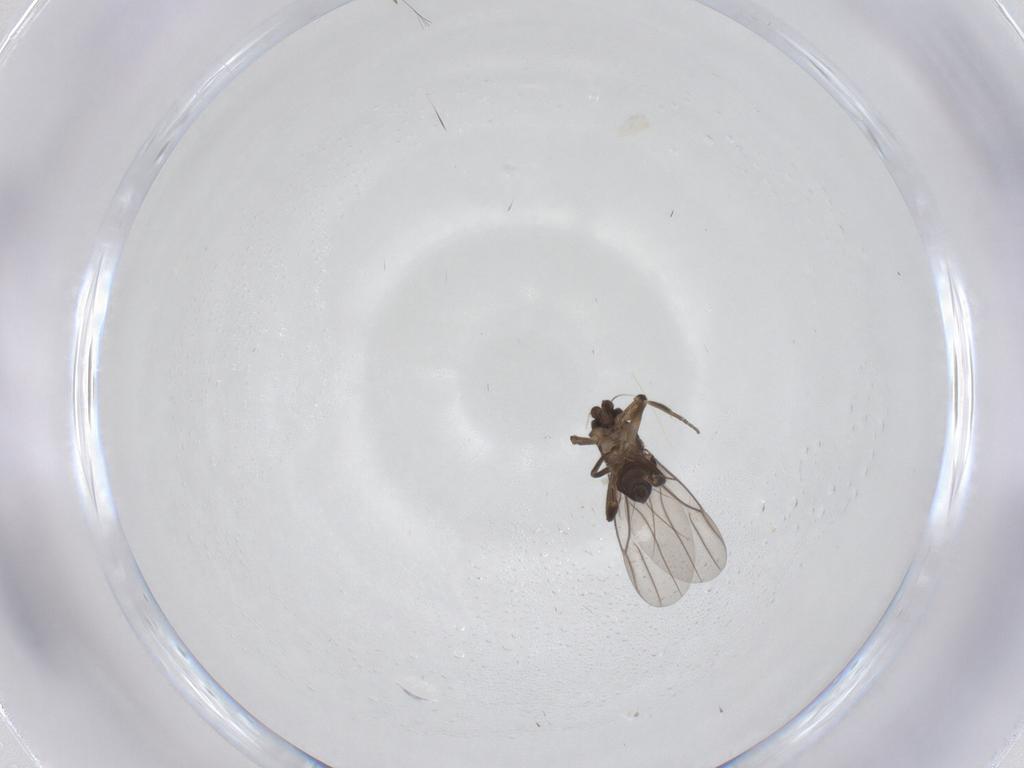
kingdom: Animalia
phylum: Arthropoda
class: Insecta
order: Diptera
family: Phoridae
